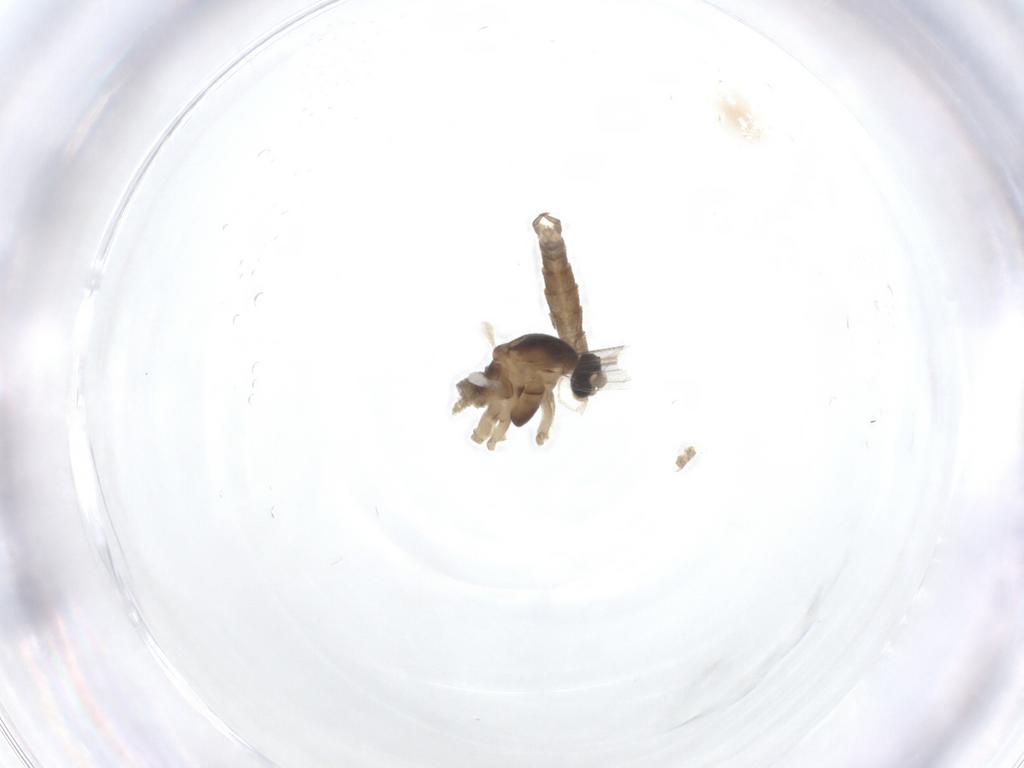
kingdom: Animalia
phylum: Arthropoda
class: Insecta
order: Diptera
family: Cecidomyiidae
